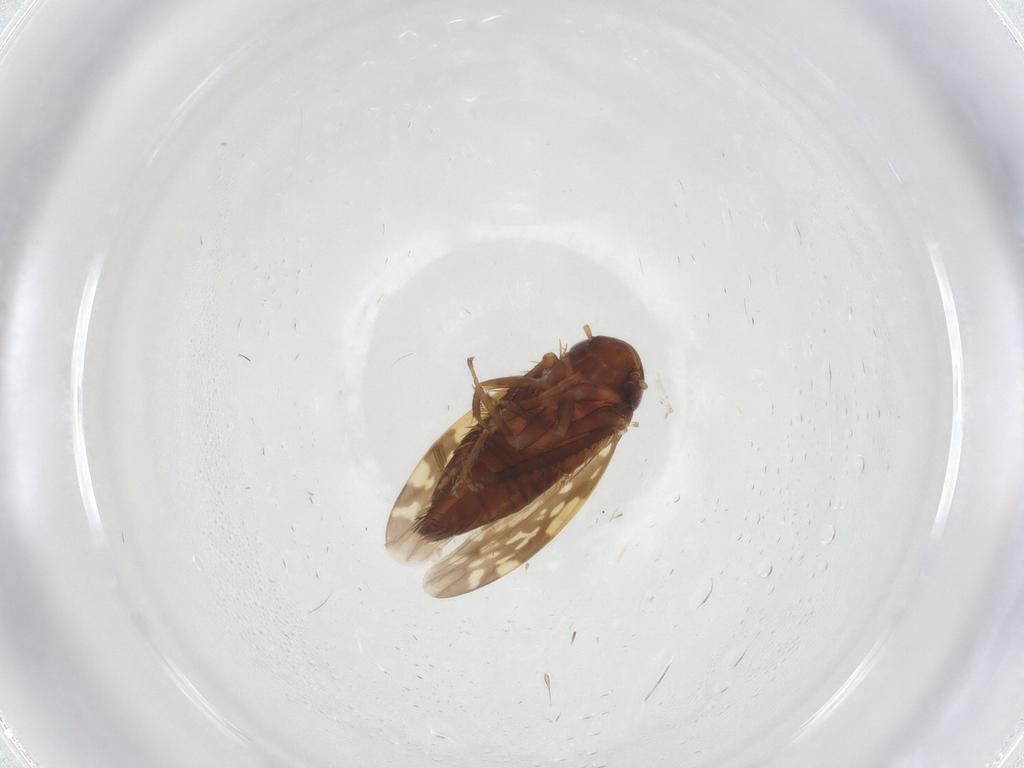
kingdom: Animalia
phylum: Arthropoda
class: Insecta
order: Hemiptera
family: Cicadellidae
